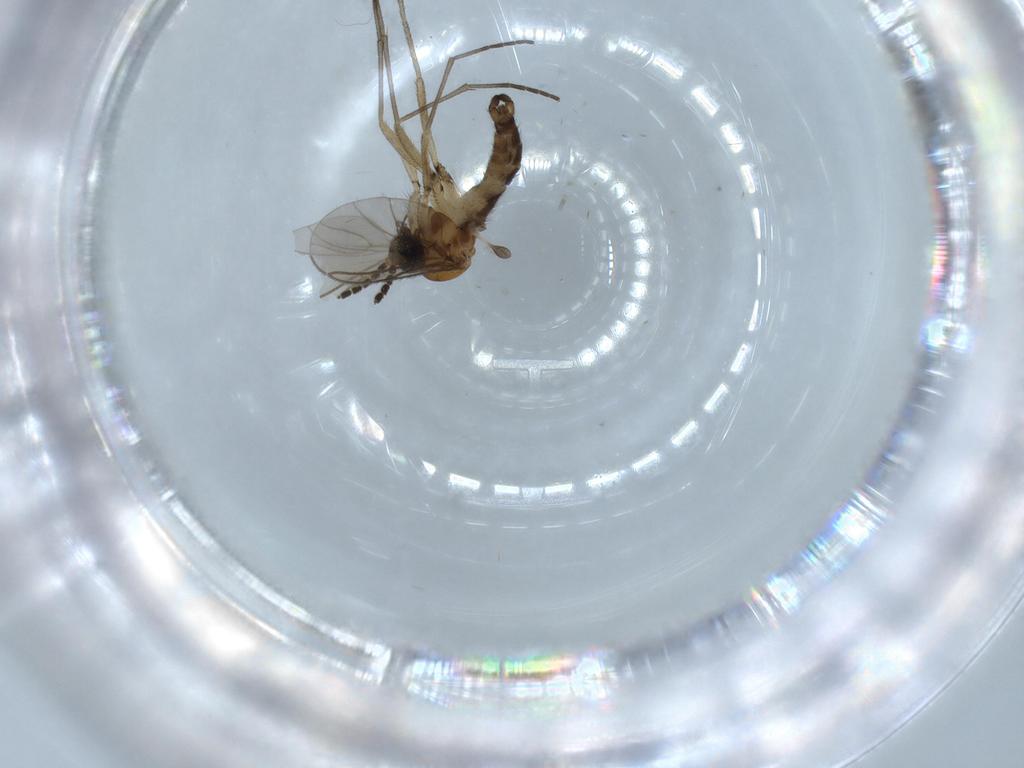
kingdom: Animalia
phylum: Arthropoda
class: Insecta
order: Diptera
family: Sciaridae
